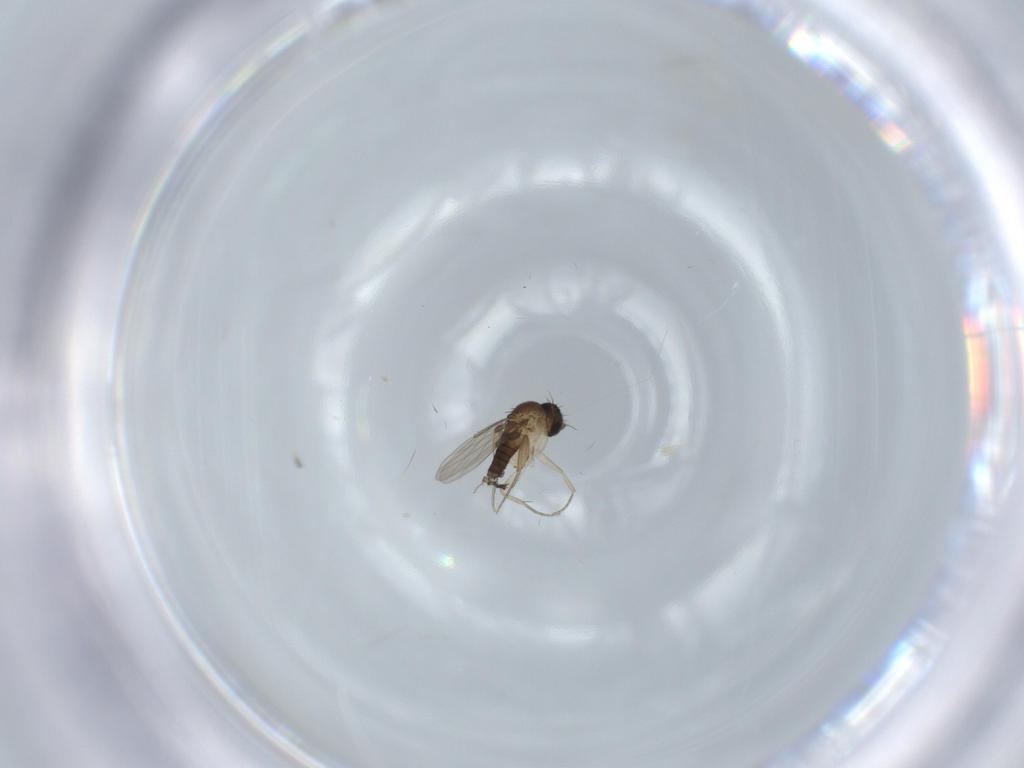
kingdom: Animalia
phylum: Arthropoda
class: Insecta
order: Diptera
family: Phoridae
